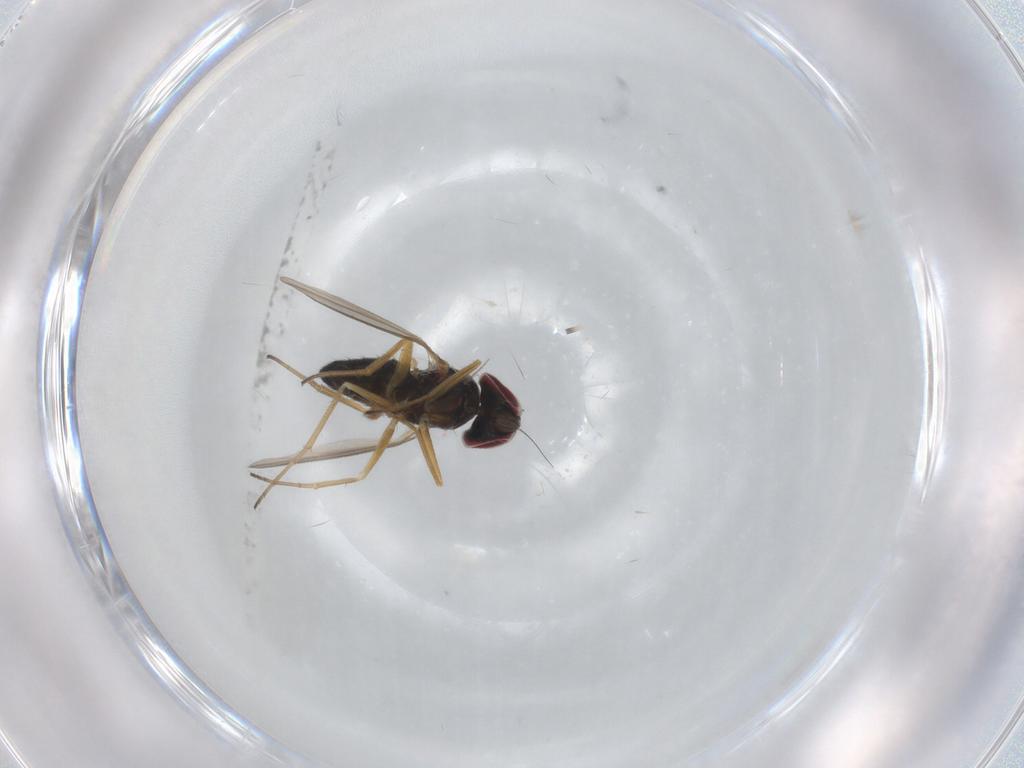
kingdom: Animalia
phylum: Arthropoda
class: Insecta
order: Diptera
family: Dolichopodidae
